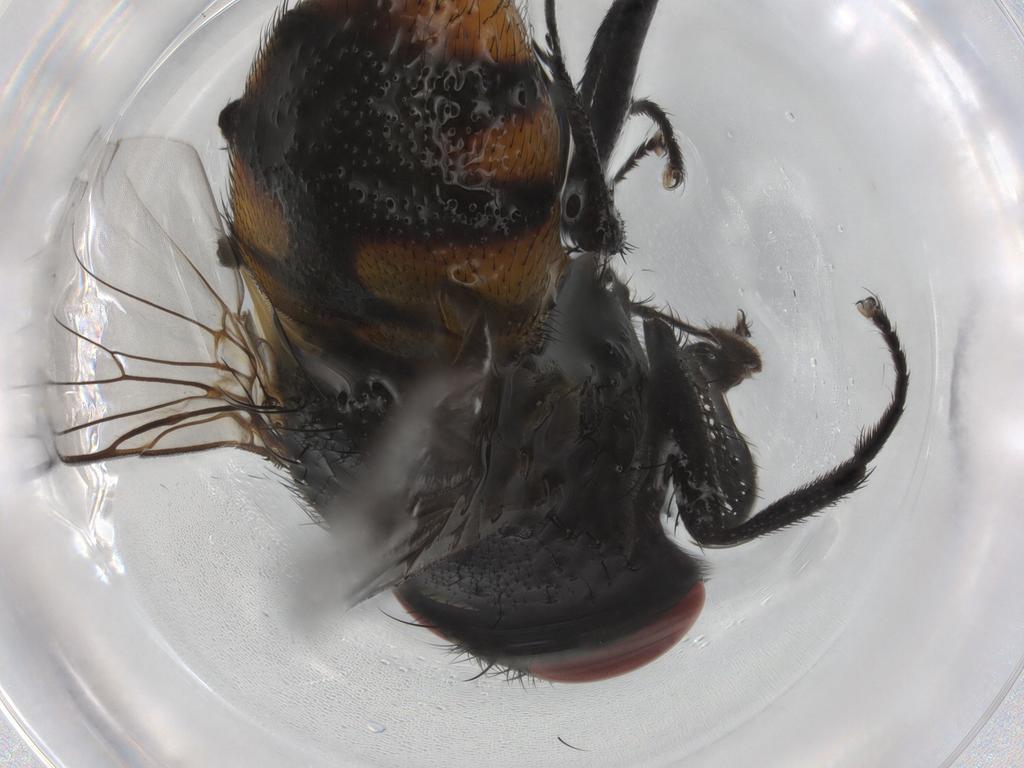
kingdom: Animalia
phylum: Arthropoda
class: Insecta
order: Diptera
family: Muscidae
